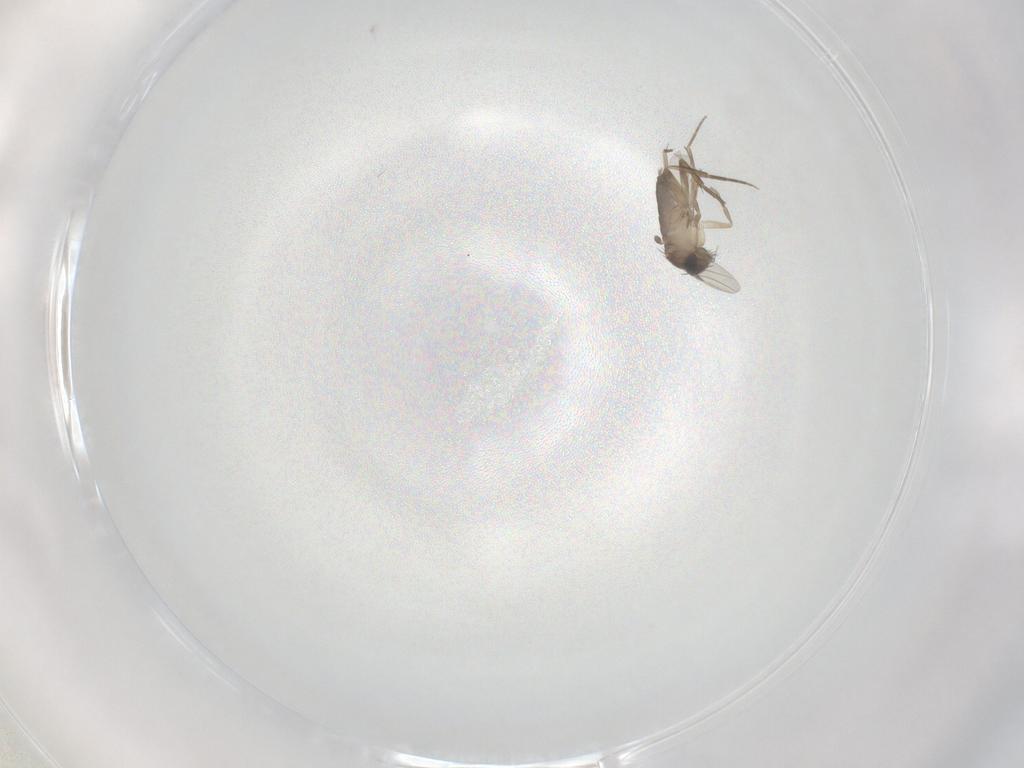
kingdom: Animalia
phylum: Arthropoda
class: Insecta
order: Diptera
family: Phoridae
